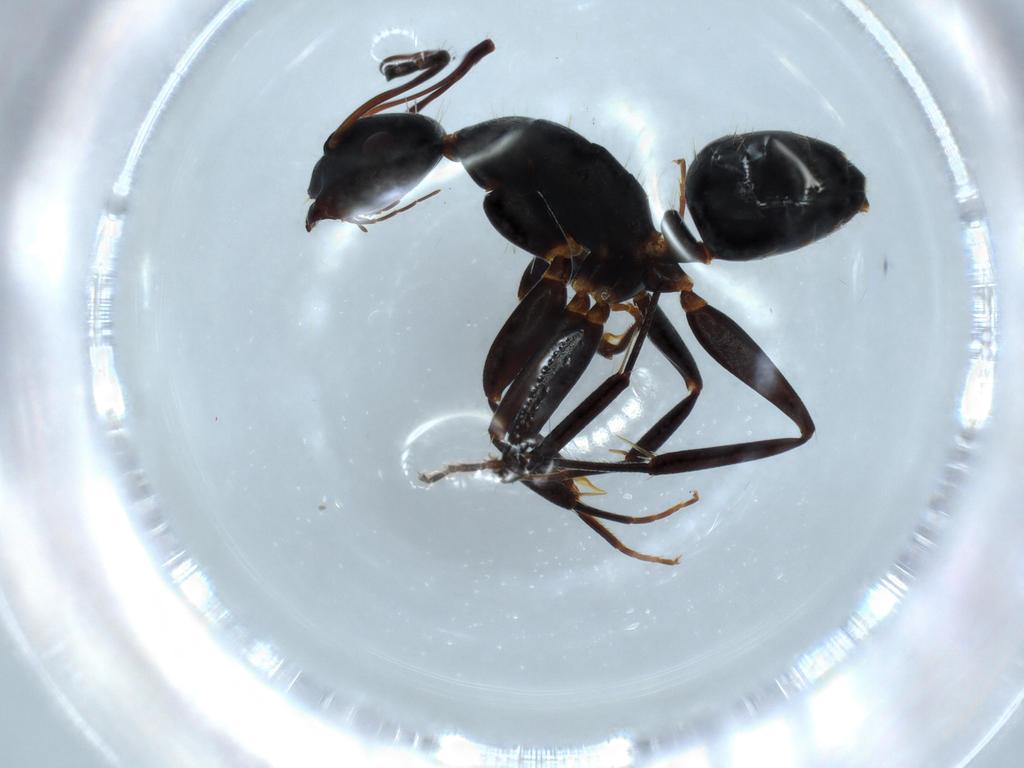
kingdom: Animalia
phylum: Arthropoda
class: Insecta
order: Hymenoptera
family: Formicidae
